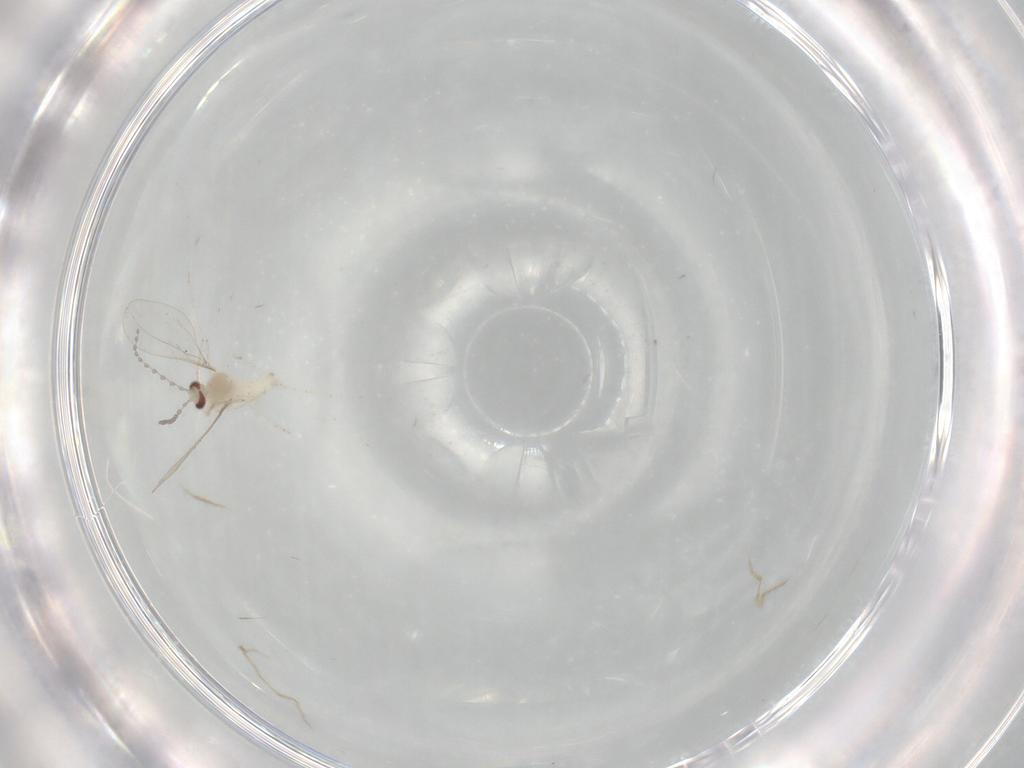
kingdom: Animalia
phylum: Arthropoda
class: Insecta
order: Diptera
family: Cecidomyiidae
